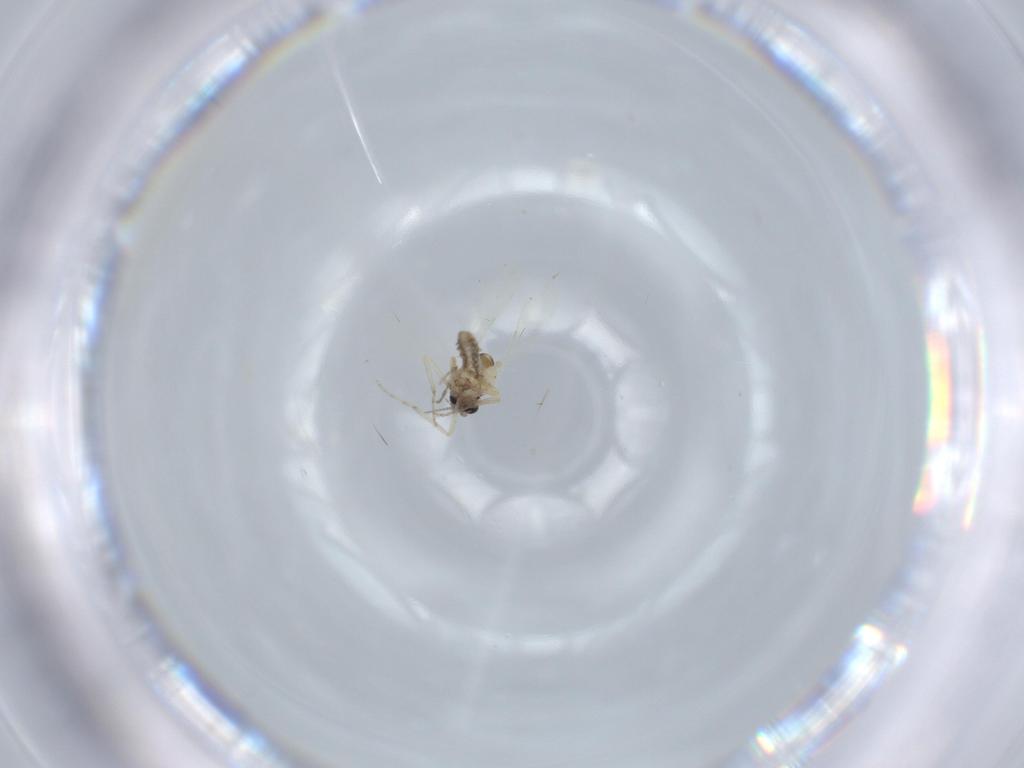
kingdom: Animalia
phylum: Arthropoda
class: Insecta
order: Diptera
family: Ceratopogonidae
